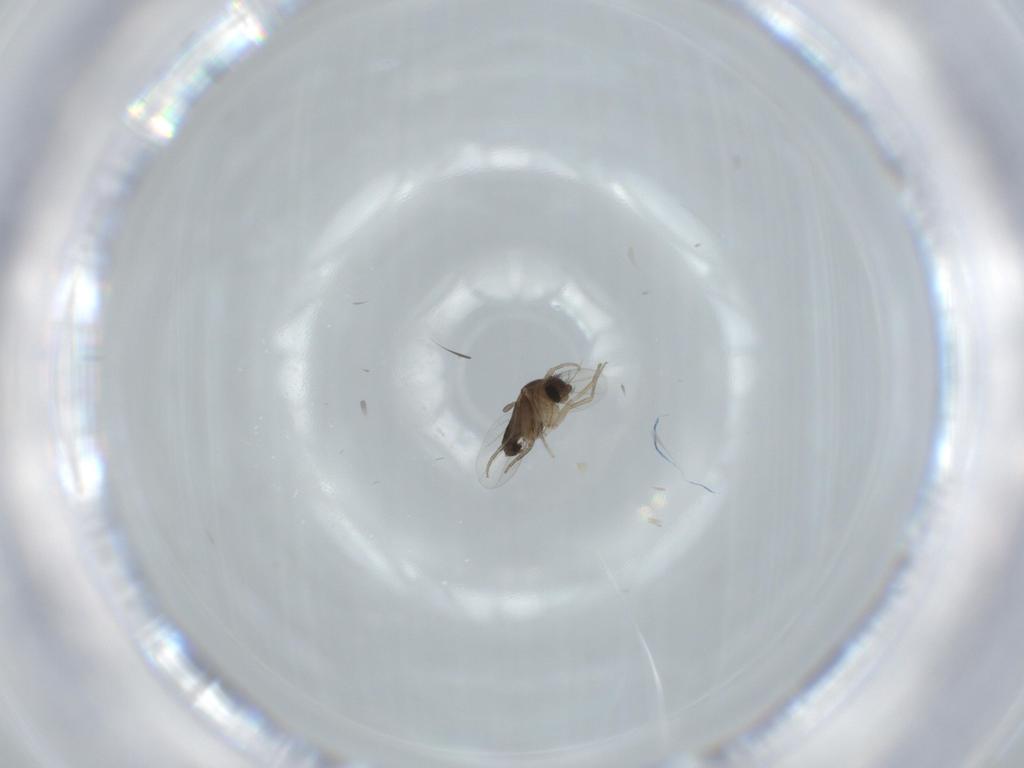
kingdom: Animalia
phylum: Arthropoda
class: Insecta
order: Diptera
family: Phoridae
